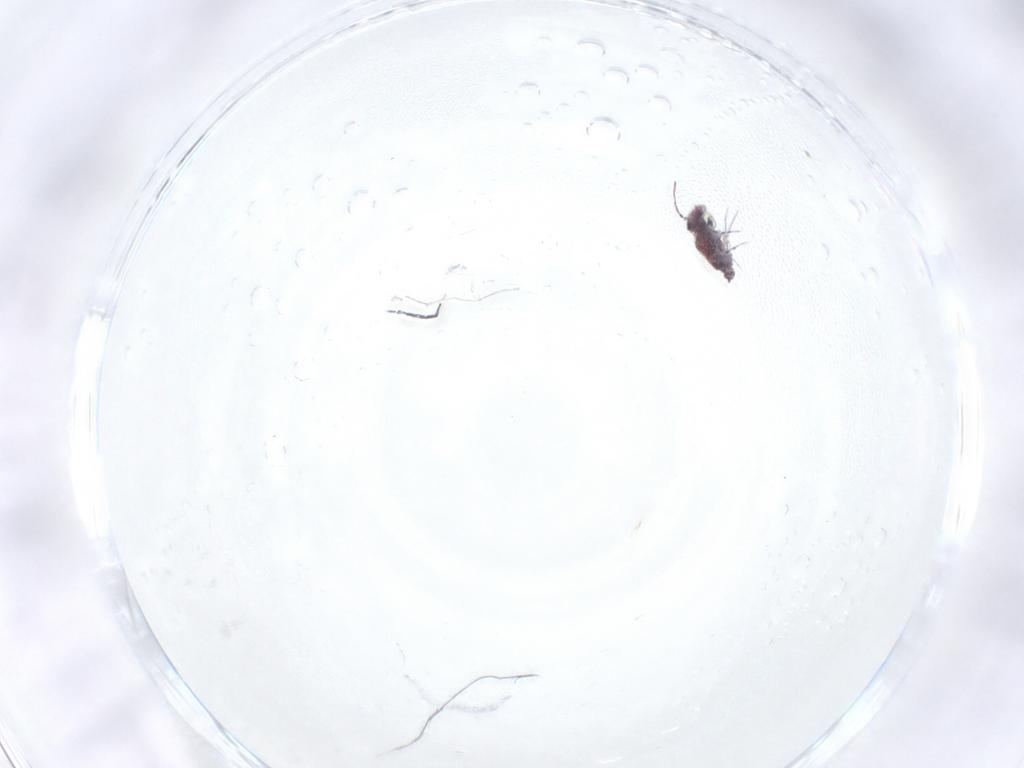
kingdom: Animalia
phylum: Arthropoda
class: Collembola
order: Symphypleona
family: Bourletiellidae
